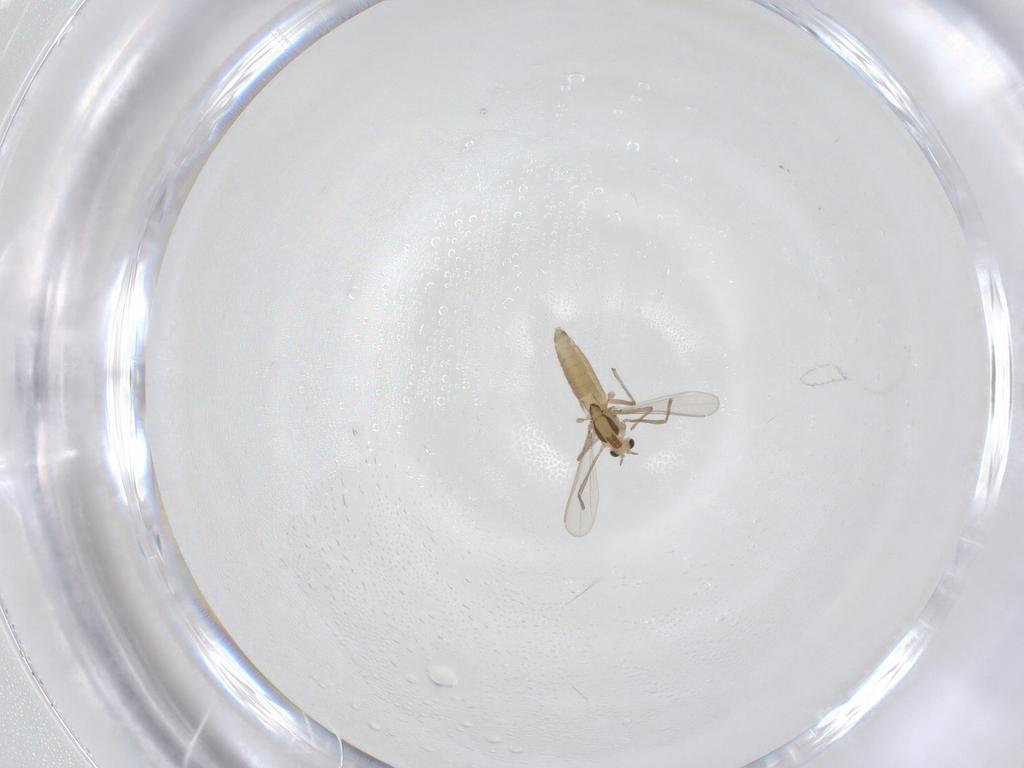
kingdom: Animalia
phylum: Arthropoda
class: Insecta
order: Diptera
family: Chironomidae
